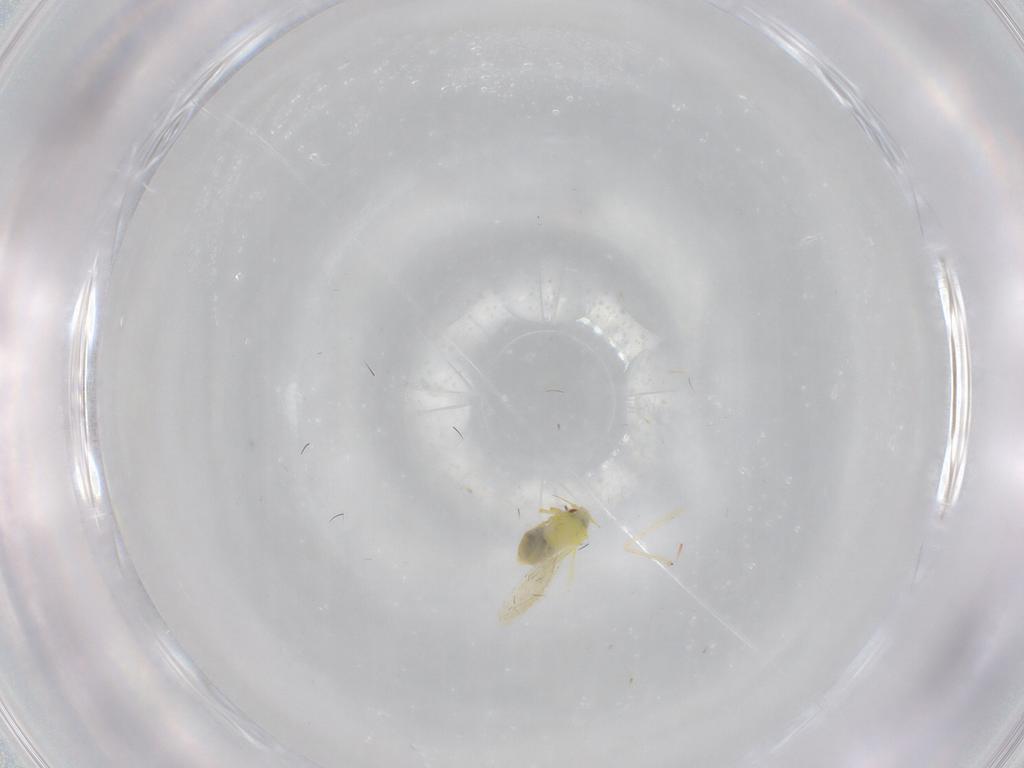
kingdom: Animalia
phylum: Arthropoda
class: Insecta
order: Hemiptera
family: Aleyrodidae
